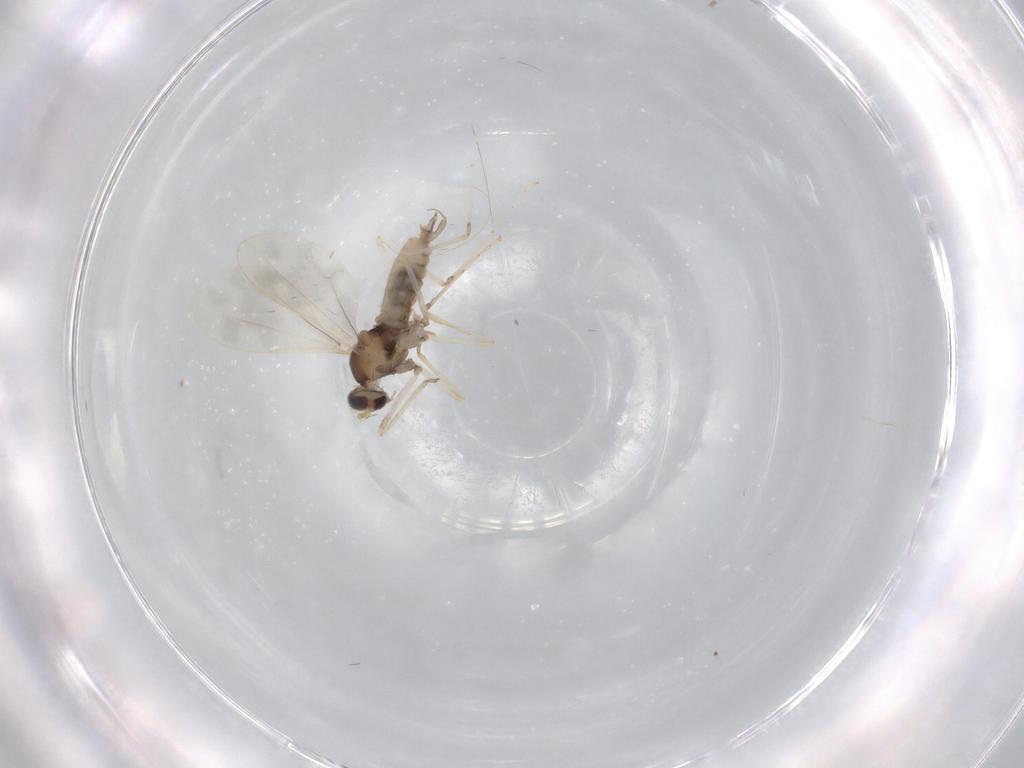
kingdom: Animalia
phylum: Arthropoda
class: Insecta
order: Diptera
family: Cecidomyiidae
